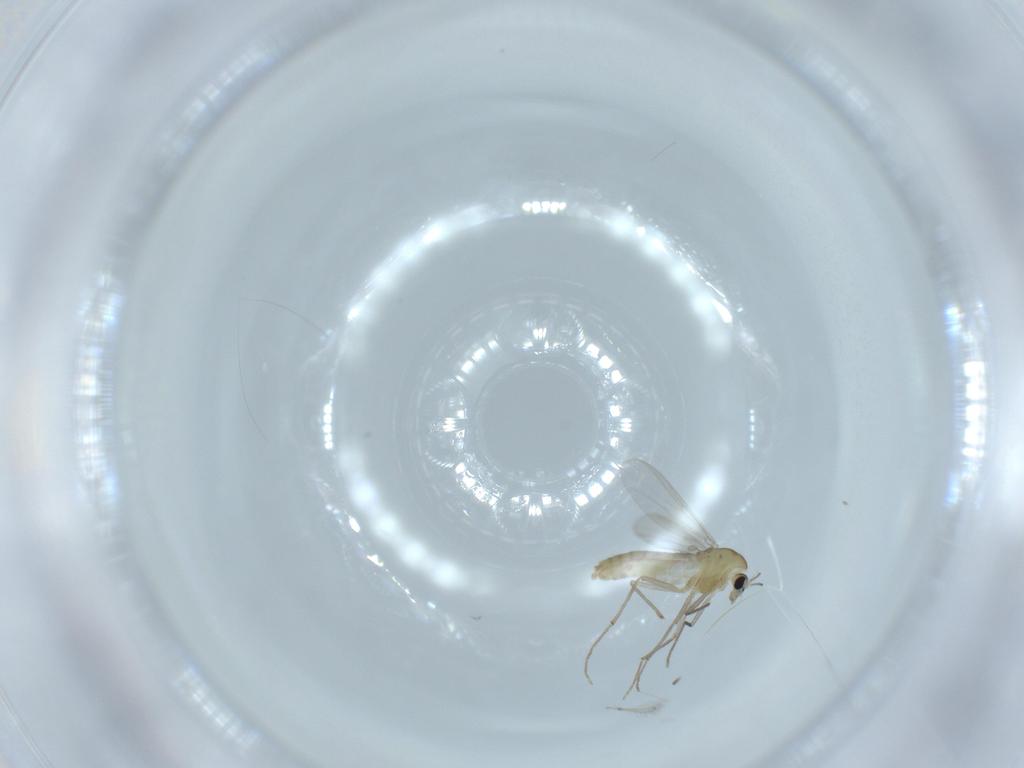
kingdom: Animalia
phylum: Arthropoda
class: Insecta
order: Diptera
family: Chironomidae
